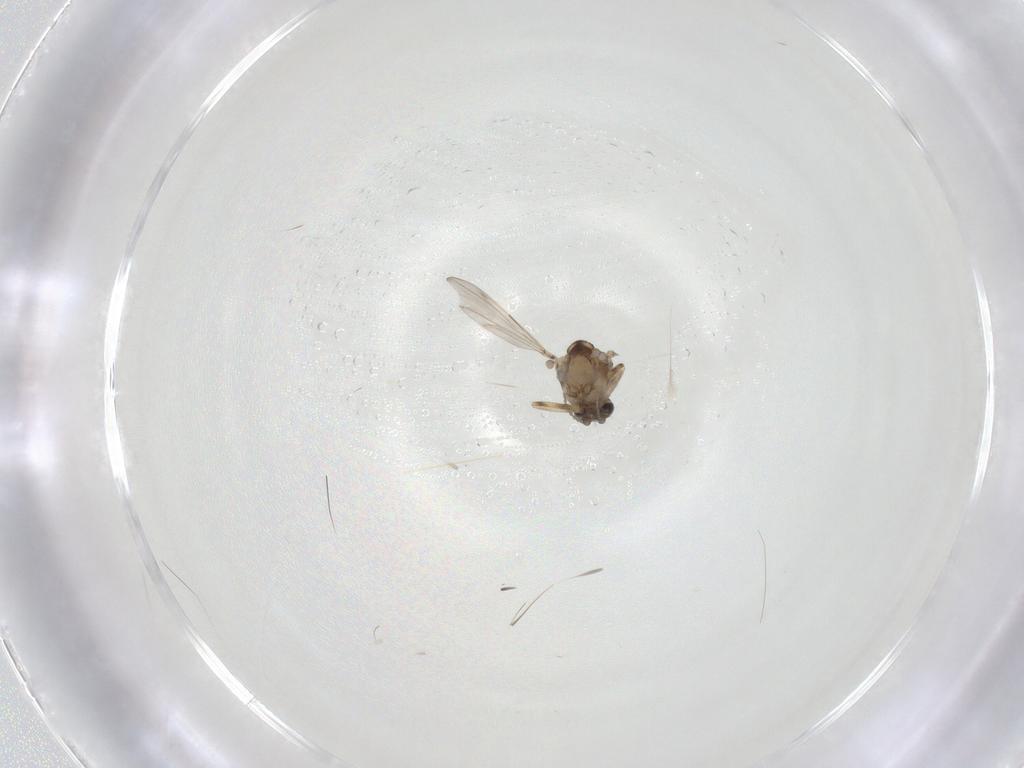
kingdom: Animalia
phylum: Arthropoda
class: Insecta
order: Diptera
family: Ceratopogonidae
